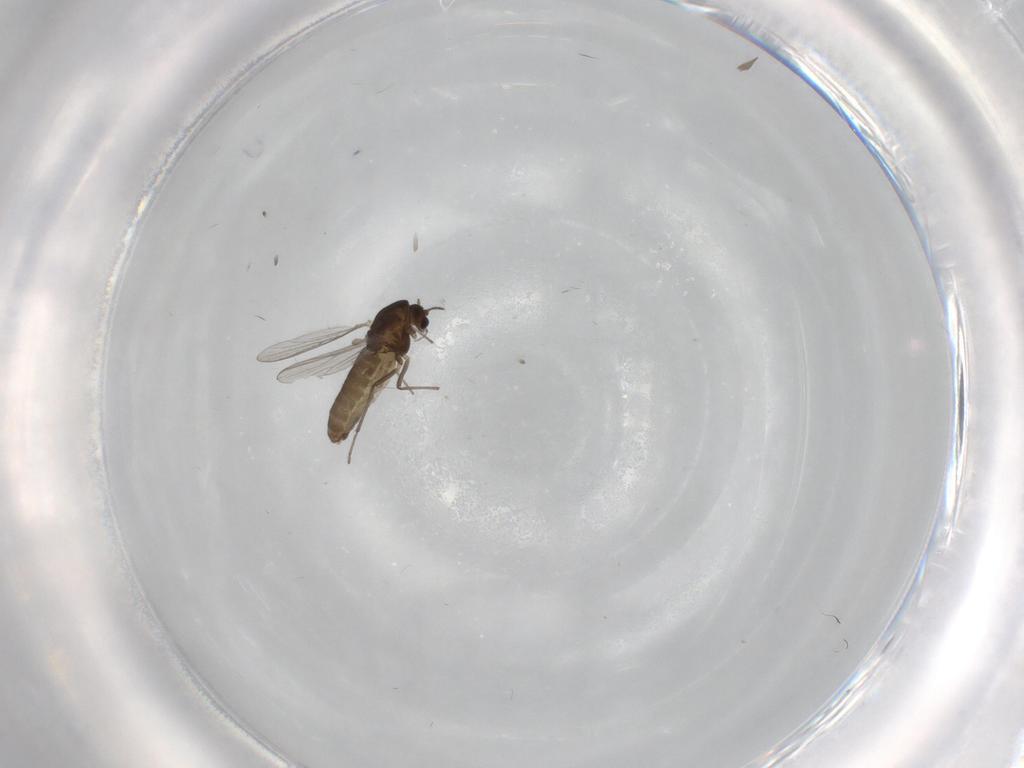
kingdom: Animalia
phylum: Arthropoda
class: Insecta
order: Diptera
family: Chironomidae
